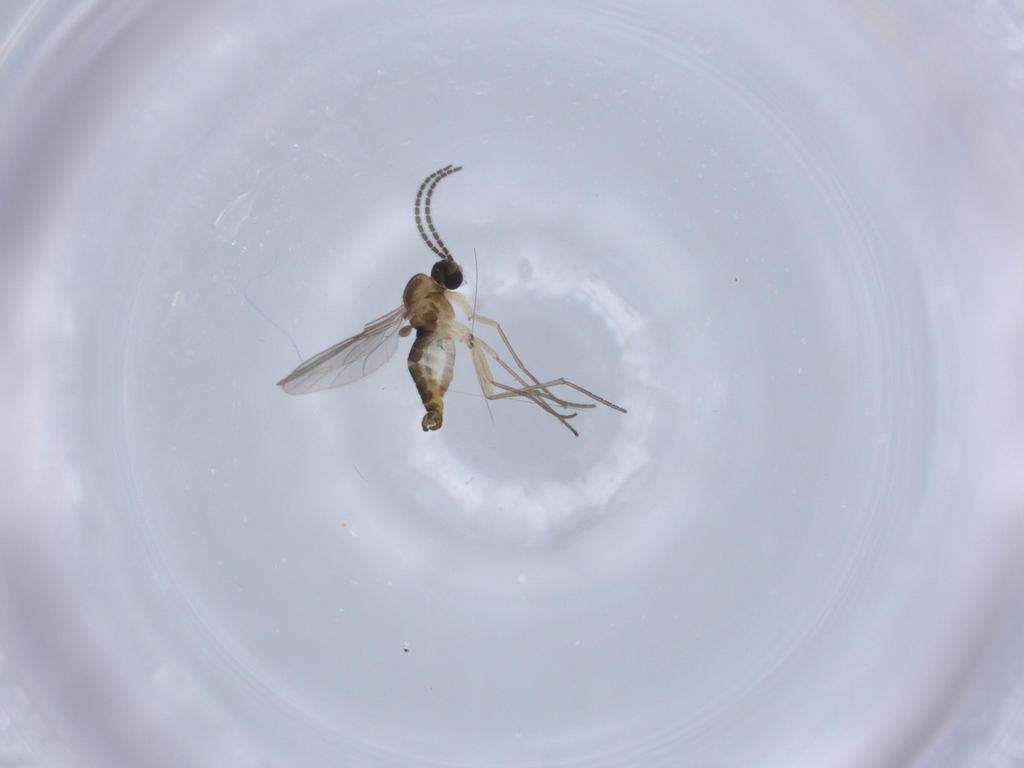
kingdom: Animalia
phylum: Arthropoda
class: Insecta
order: Diptera
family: Sciaridae
